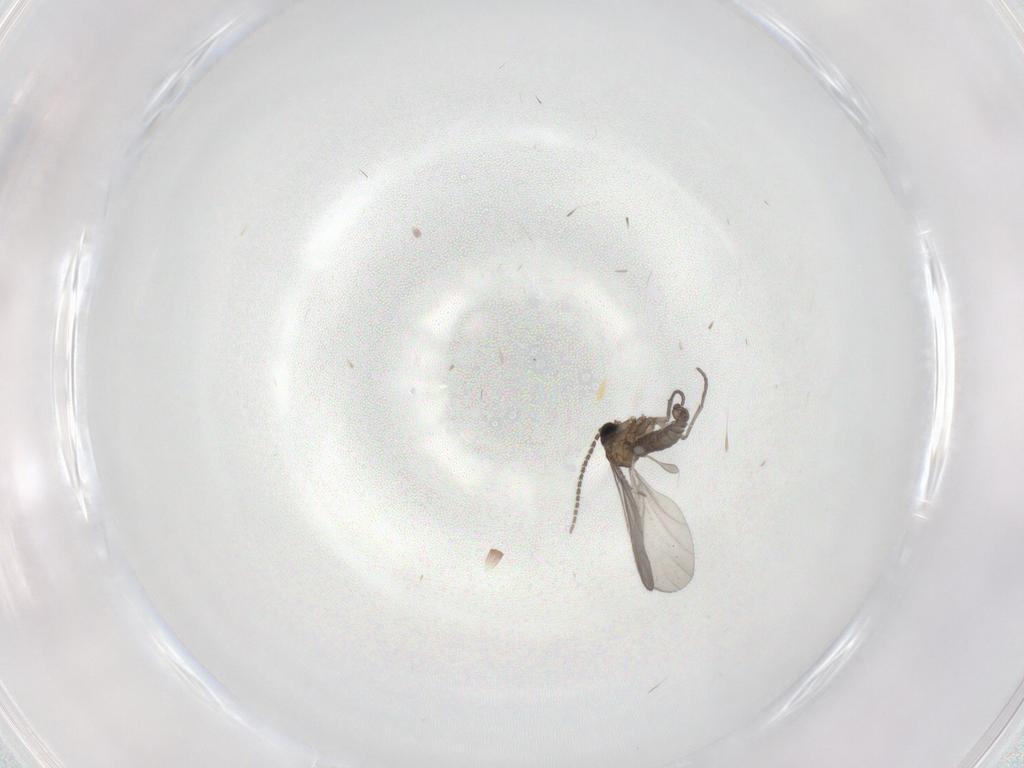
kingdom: Animalia
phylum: Arthropoda
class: Insecta
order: Diptera
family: Sciaridae
